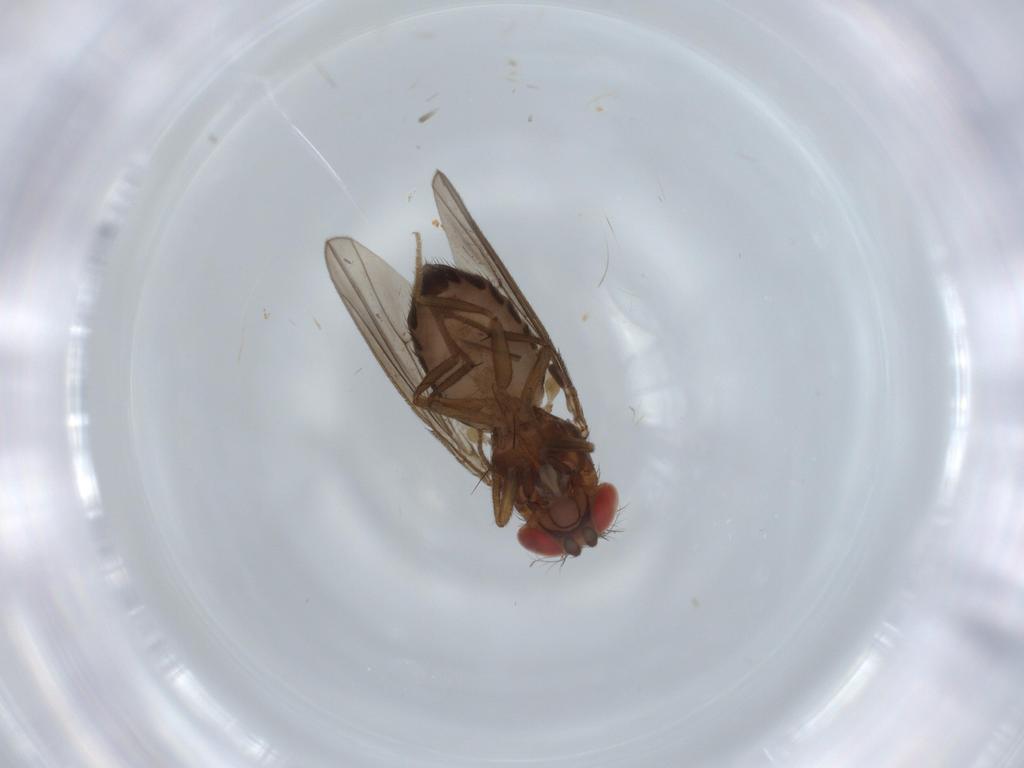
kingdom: Animalia
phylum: Arthropoda
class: Insecta
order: Diptera
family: Drosophilidae
